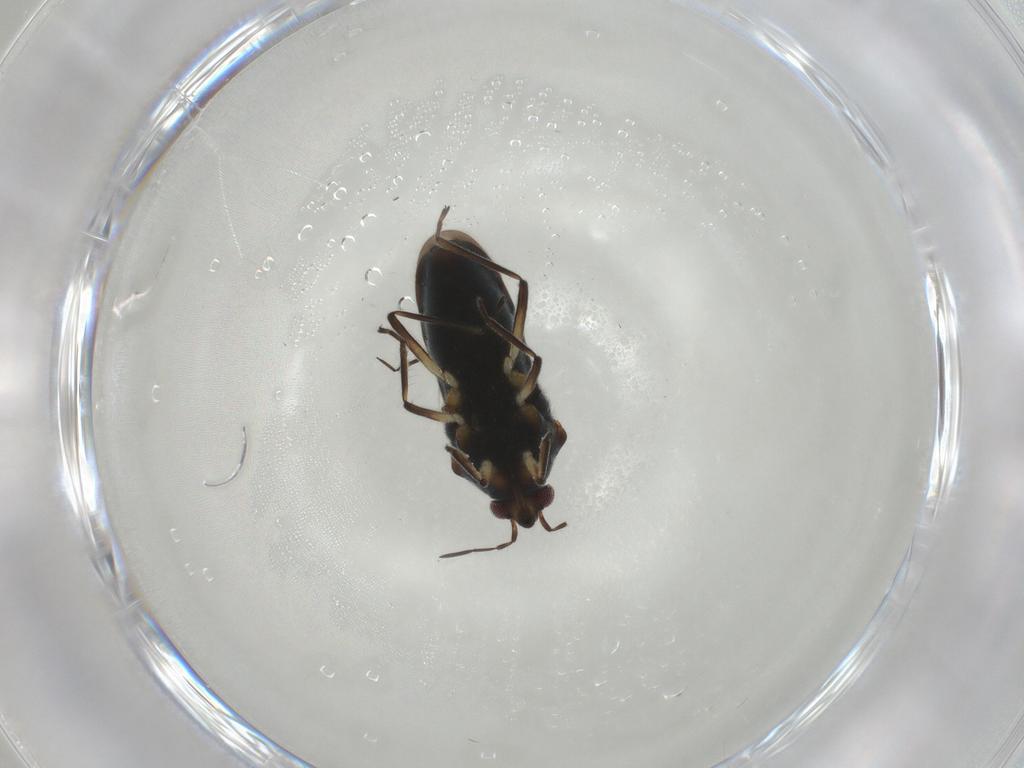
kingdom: Animalia
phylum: Arthropoda
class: Insecta
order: Hemiptera
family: Veliidae
